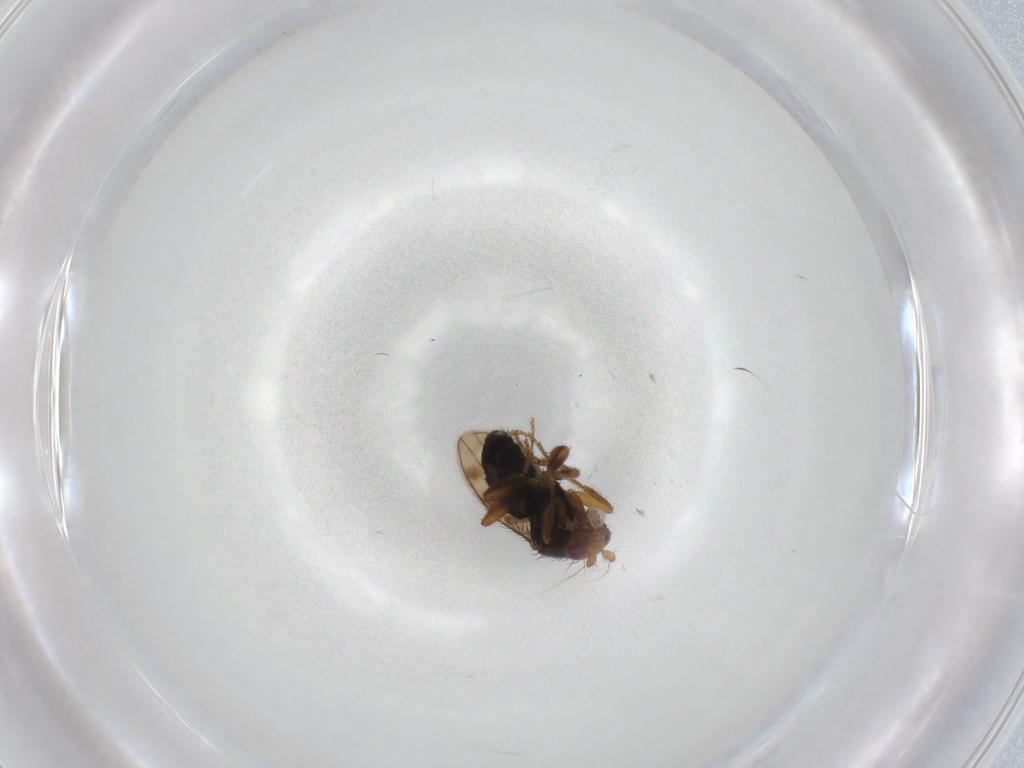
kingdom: Animalia
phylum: Arthropoda
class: Insecta
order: Diptera
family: Sphaeroceridae
